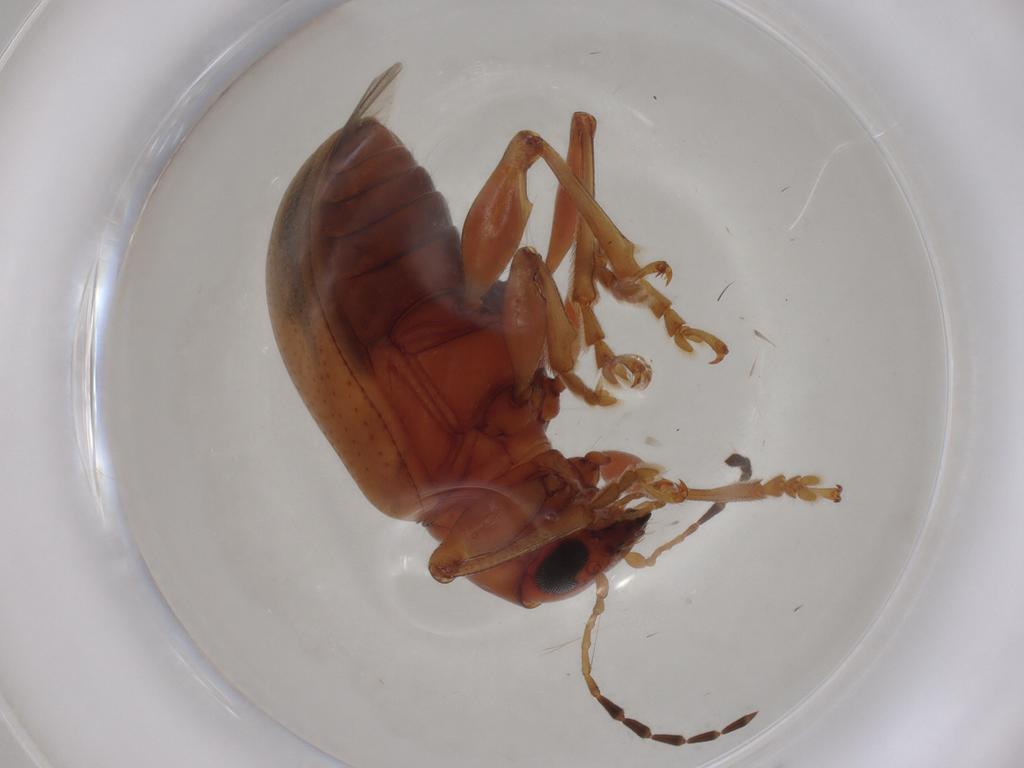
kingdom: Animalia
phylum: Arthropoda
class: Insecta
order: Coleoptera
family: Chrysomelidae
